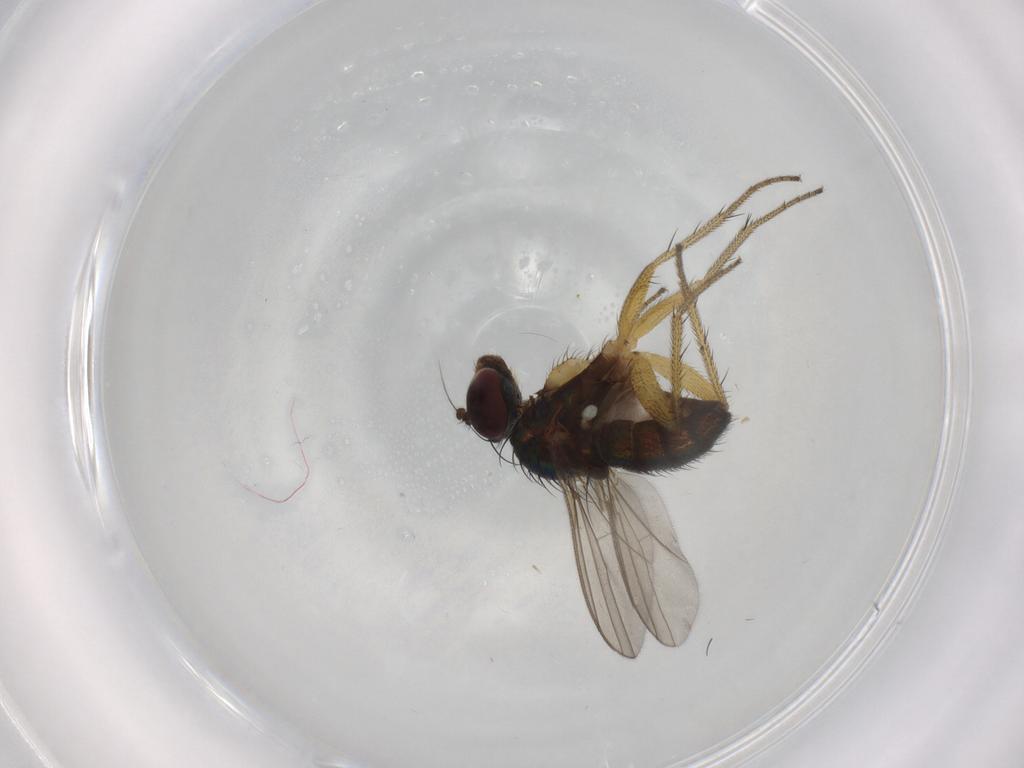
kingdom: Animalia
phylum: Arthropoda
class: Insecta
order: Diptera
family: Dolichopodidae
